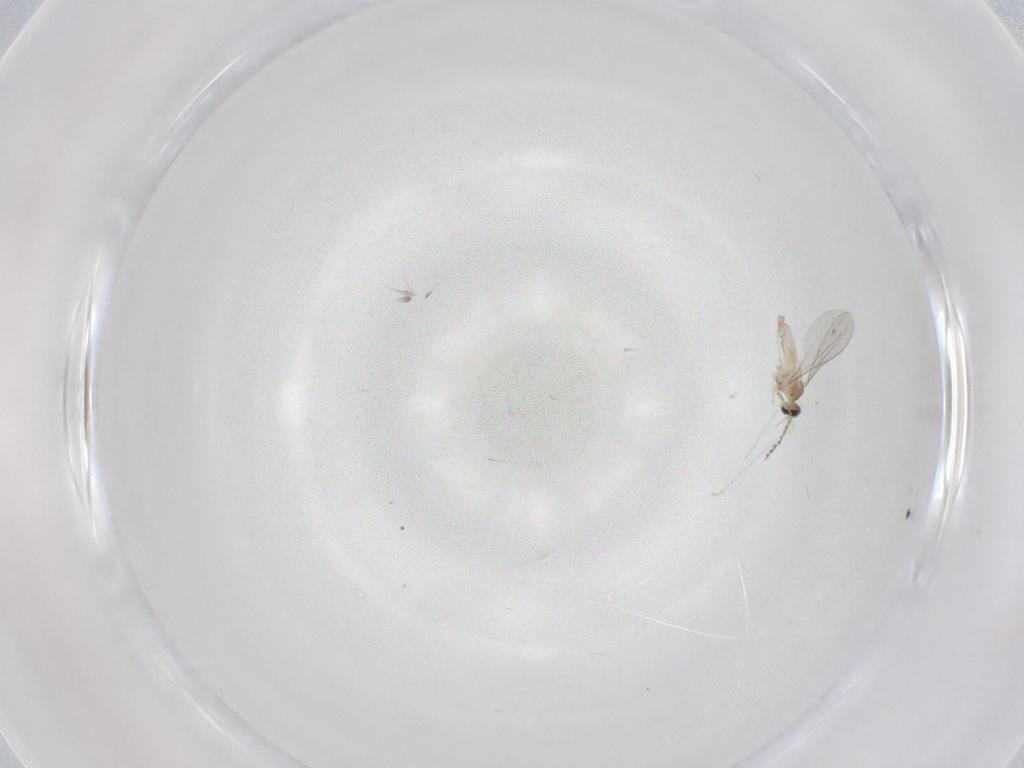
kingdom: Animalia
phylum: Arthropoda
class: Insecta
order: Diptera
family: Cecidomyiidae
